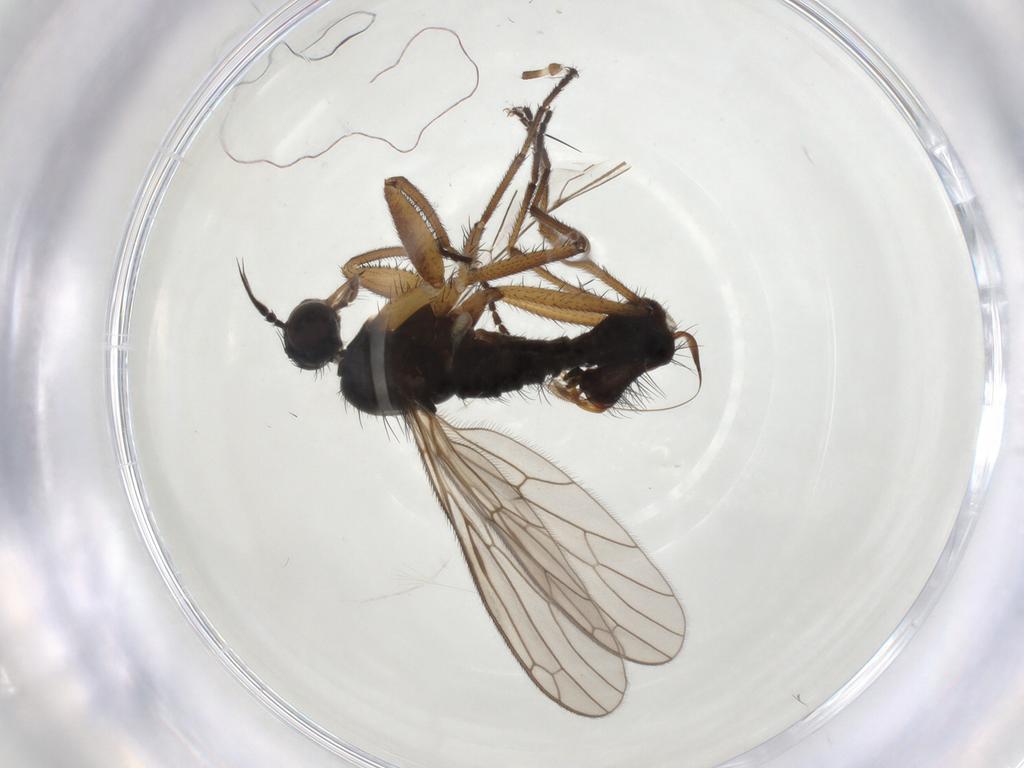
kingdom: Animalia
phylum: Arthropoda
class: Insecta
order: Diptera
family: Empididae
